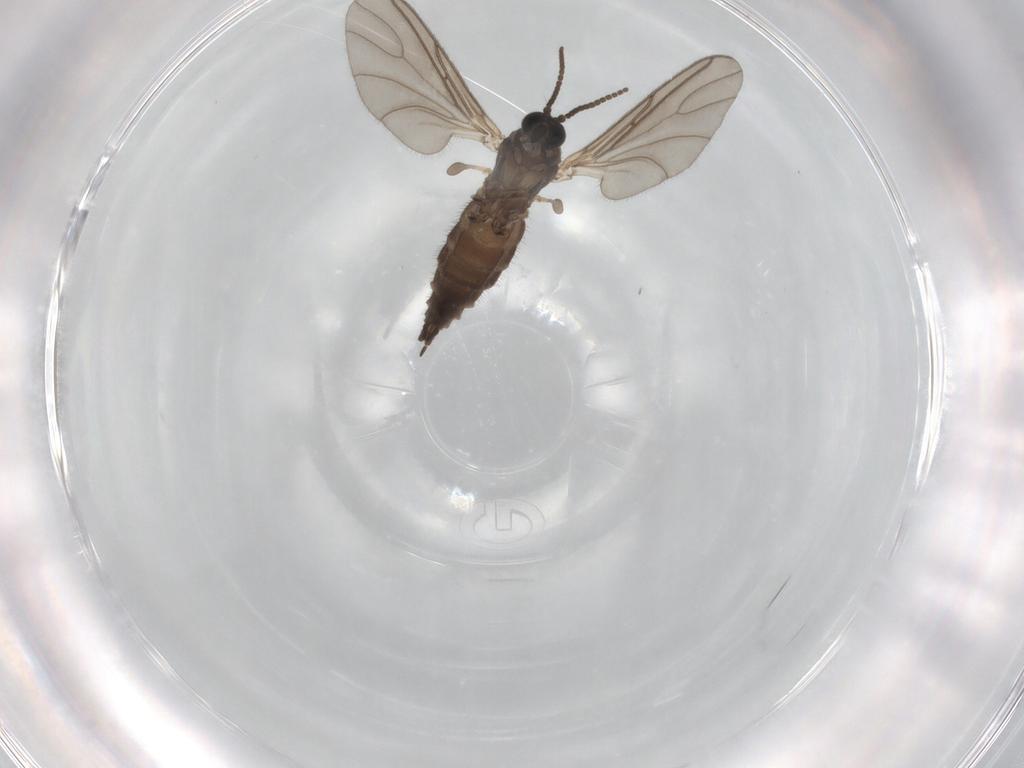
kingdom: Animalia
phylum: Arthropoda
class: Insecta
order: Diptera
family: Sciaridae
